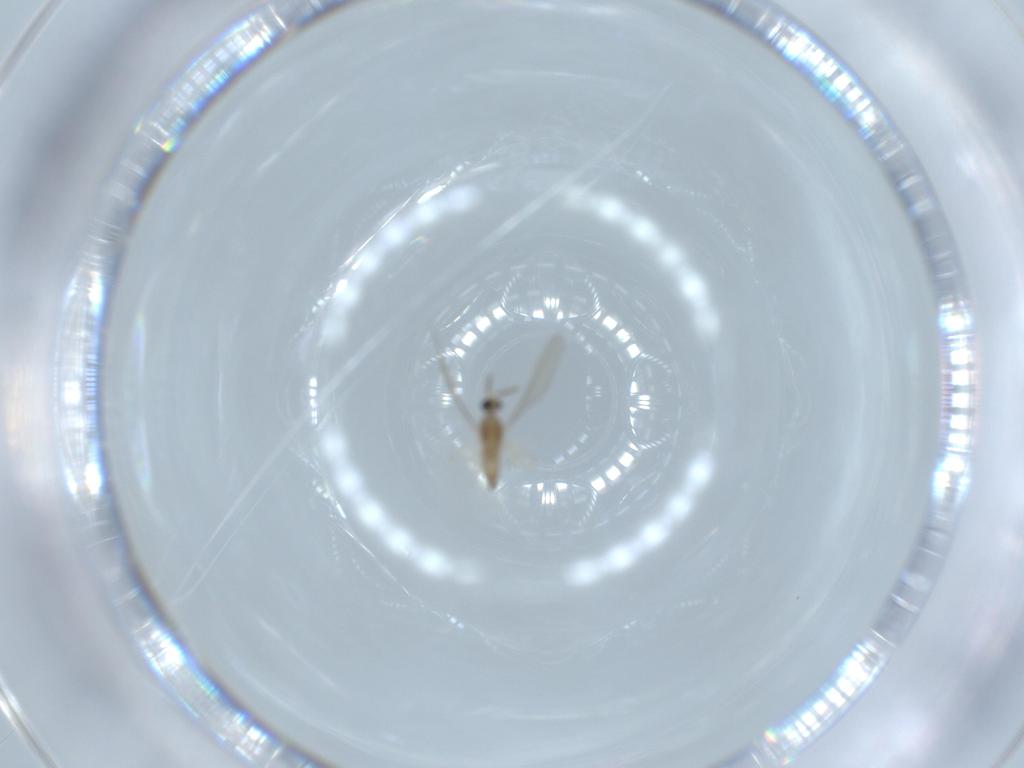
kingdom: Animalia
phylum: Arthropoda
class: Insecta
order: Diptera
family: Cecidomyiidae
